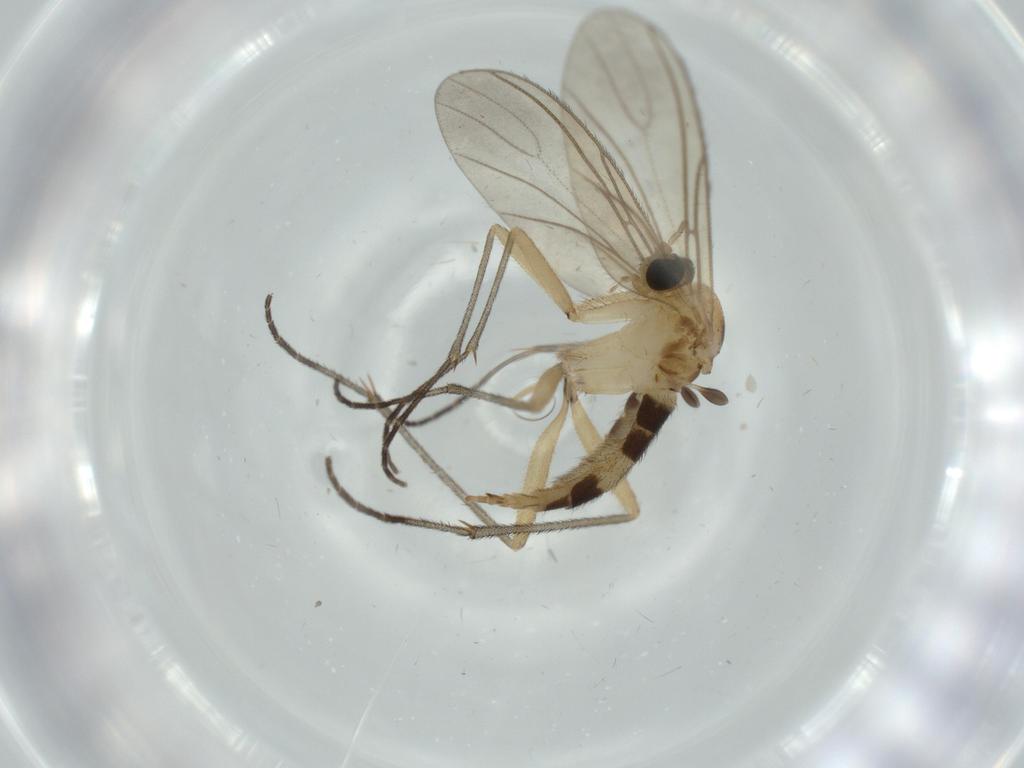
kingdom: Animalia
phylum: Arthropoda
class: Insecta
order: Diptera
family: Sciaridae
